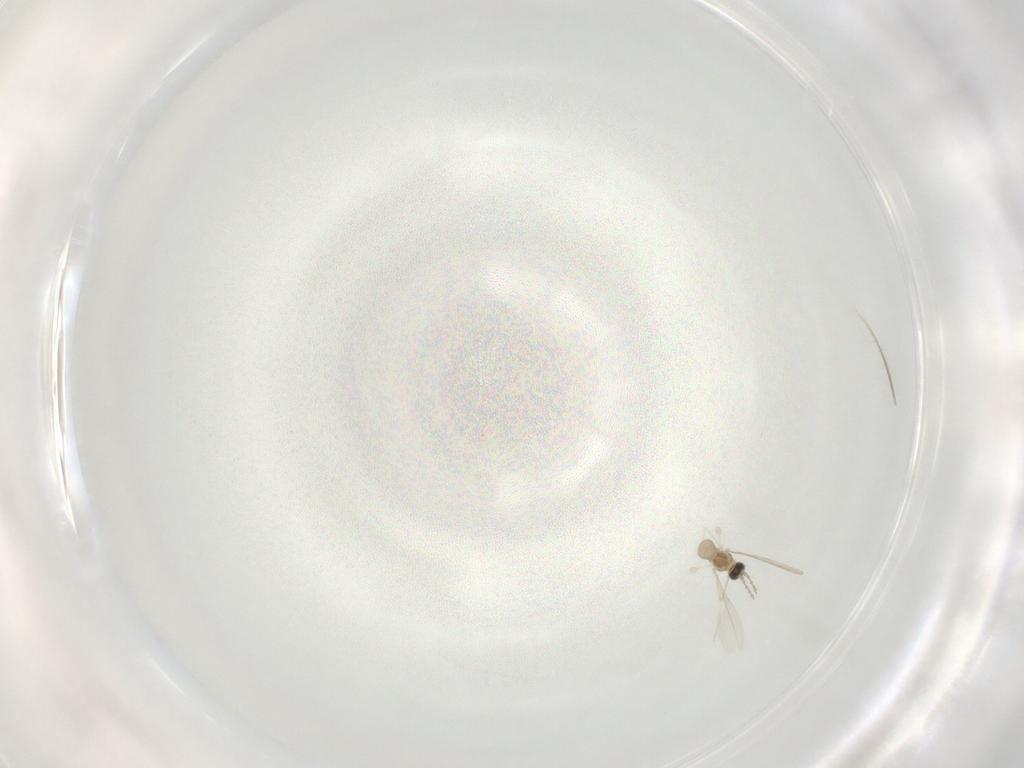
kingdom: Animalia
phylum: Arthropoda
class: Insecta
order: Diptera
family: Cecidomyiidae
